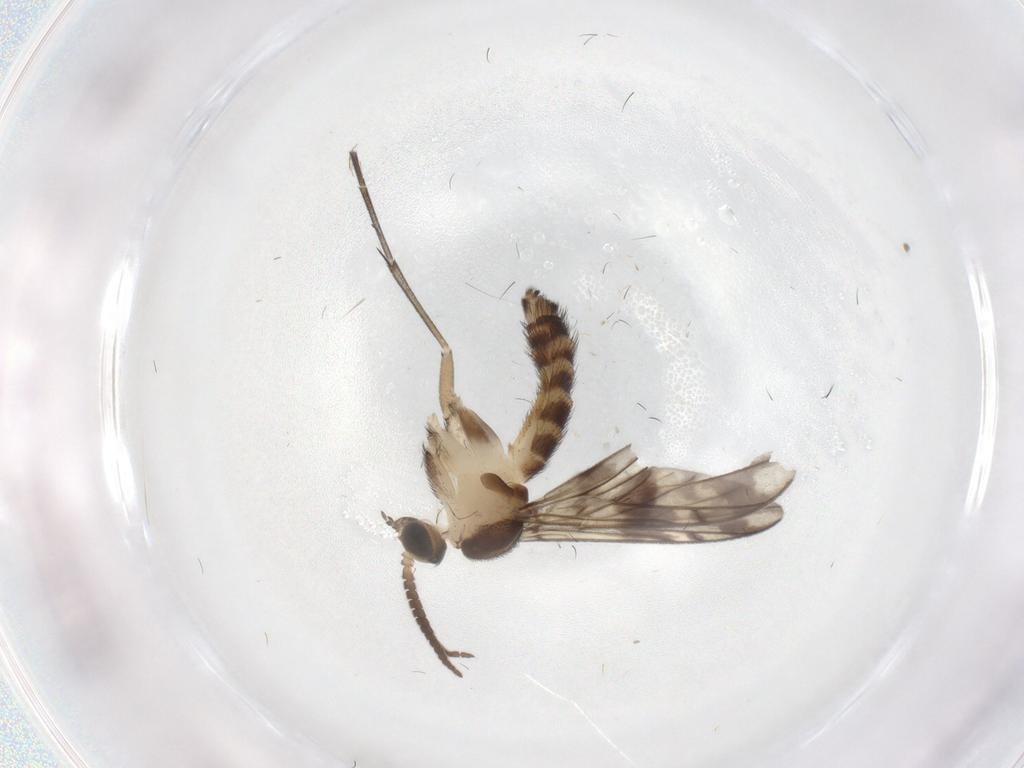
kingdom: Animalia
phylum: Arthropoda
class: Insecta
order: Diptera
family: Keroplatidae
